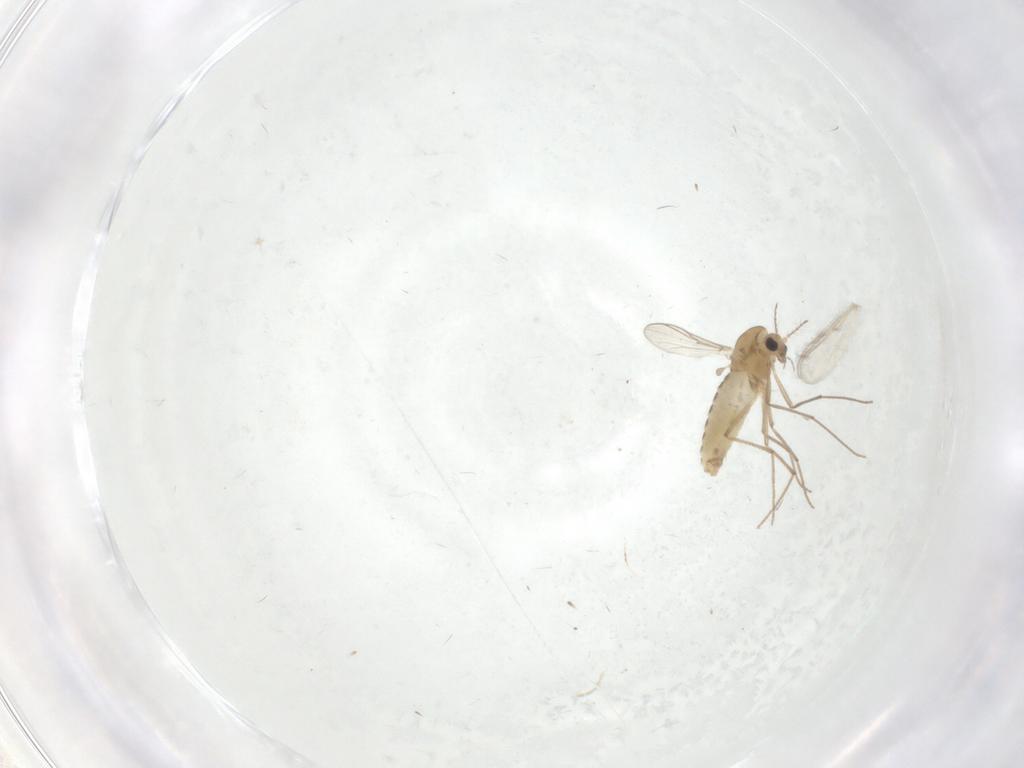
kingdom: Animalia
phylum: Arthropoda
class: Insecta
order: Diptera
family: Chironomidae
